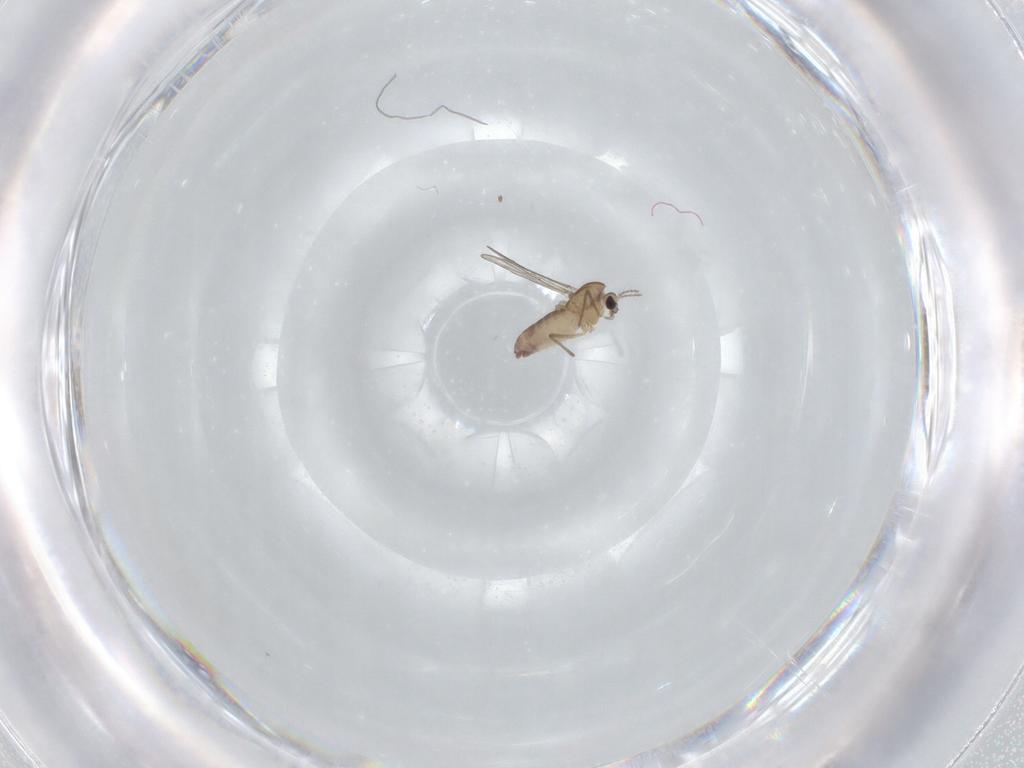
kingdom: Animalia
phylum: Arthropoda
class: Insecta
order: Diptera
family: Chironomidae
